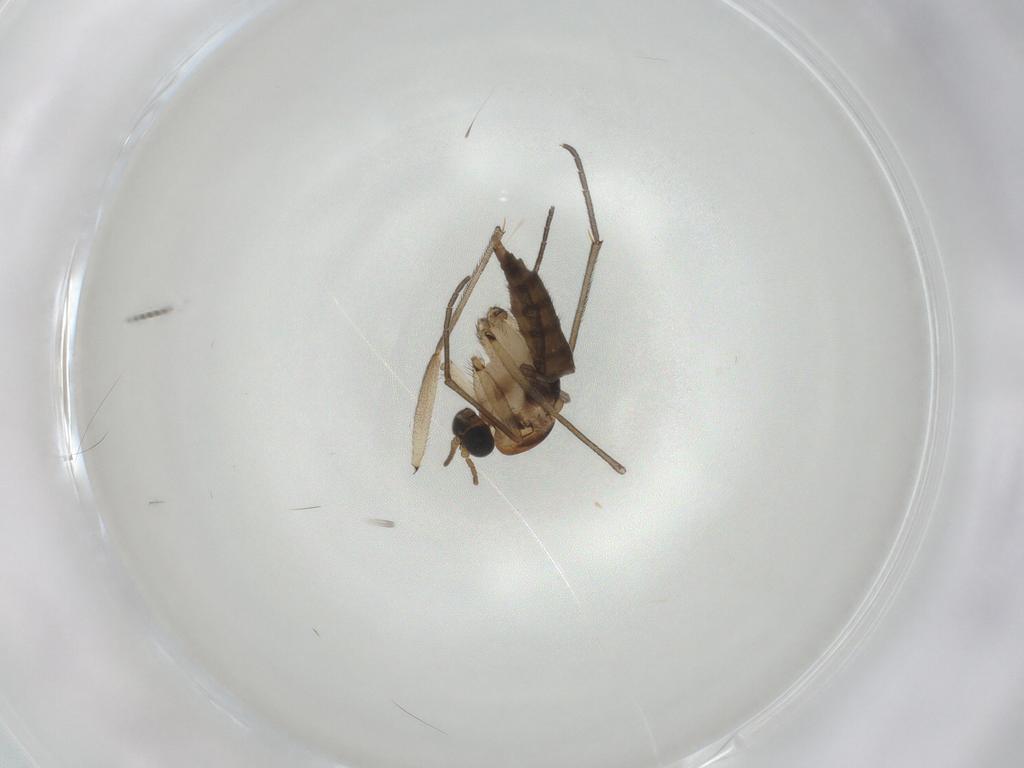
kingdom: Animalia
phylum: Arthropoda
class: Insecta
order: Diptera
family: Sciaridae
